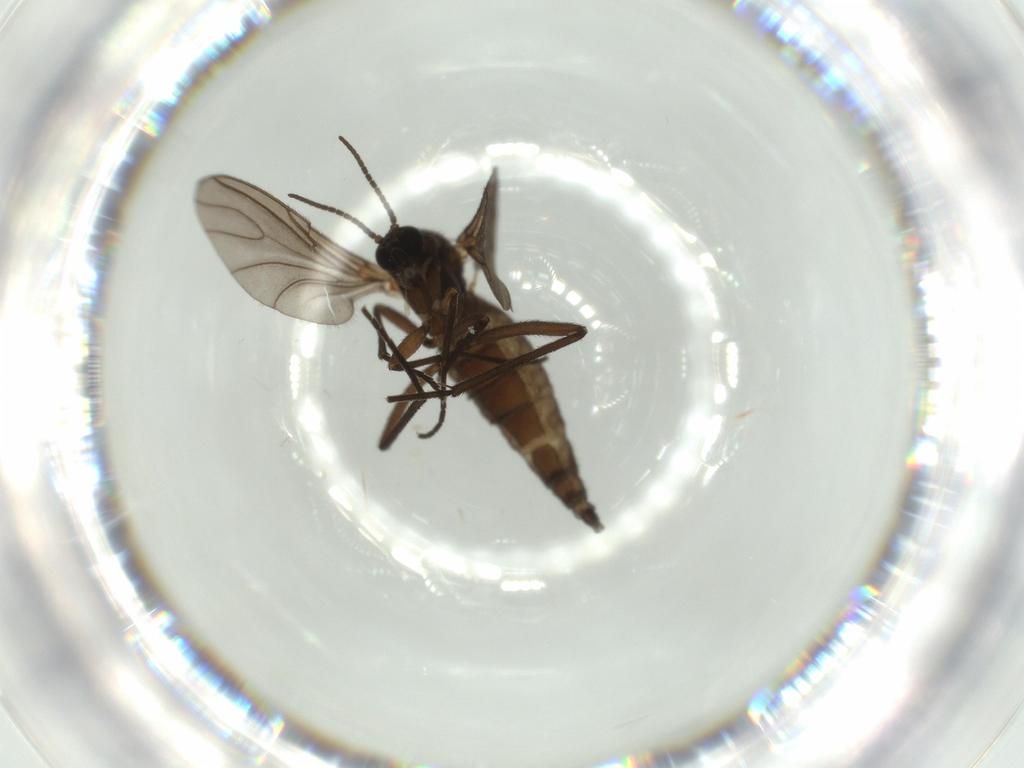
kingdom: Animalia
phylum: Arthropoda
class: Insecta
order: Diptera
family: Sciaridae
